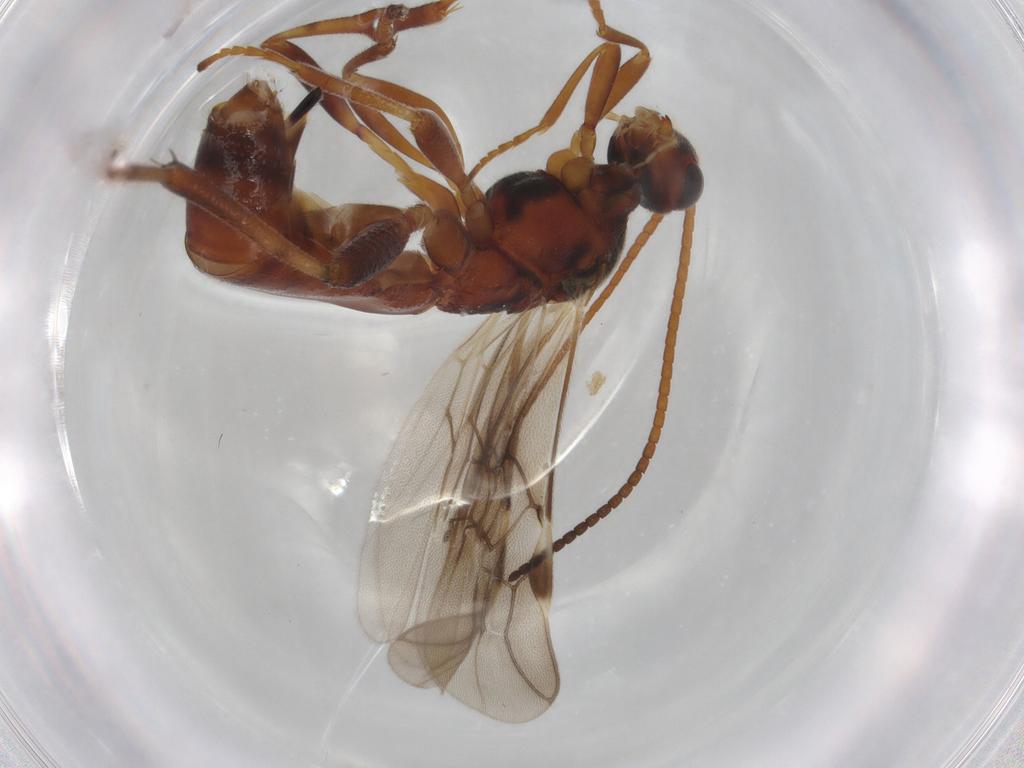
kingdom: Animalia
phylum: Arthropoda
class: Insecta
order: Hymenoptera
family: Braconidae
